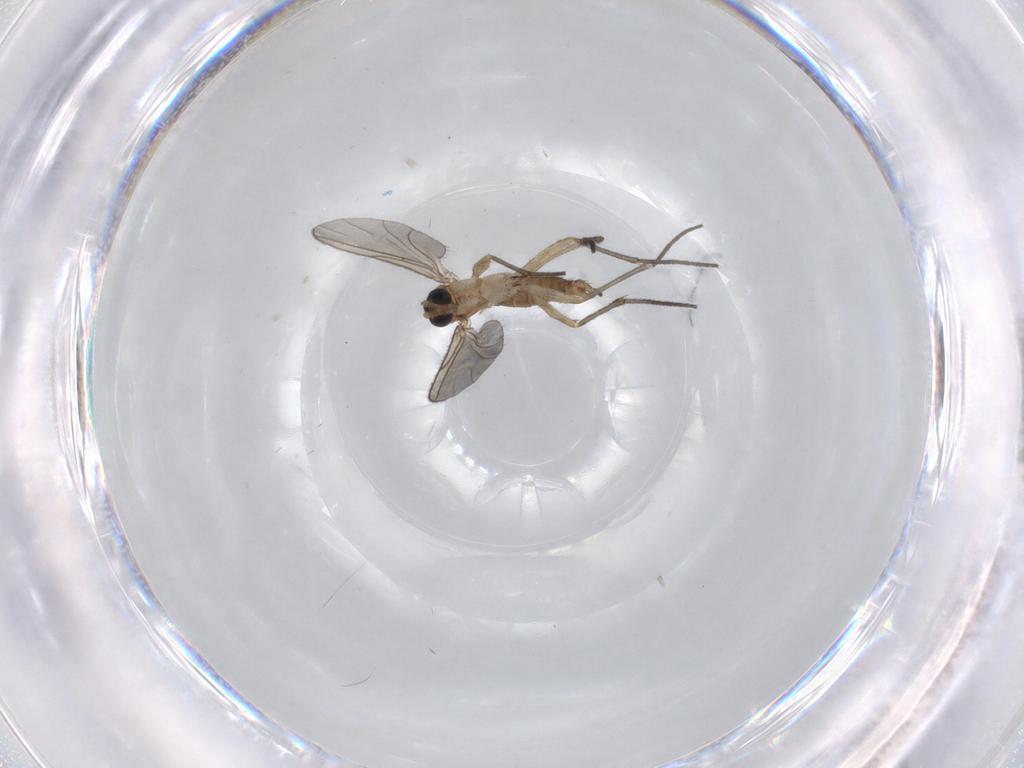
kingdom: Animalia
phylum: Arthropoda
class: Insecta
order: Diptera
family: Sciaridae
